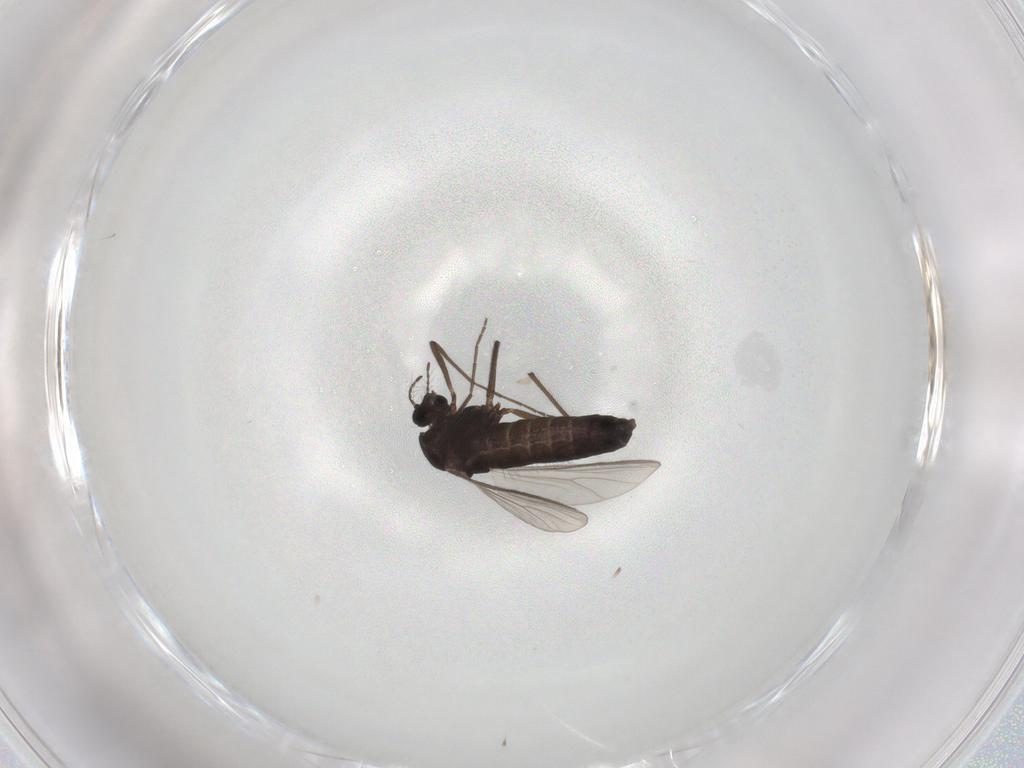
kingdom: Animalia
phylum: Arthropoda
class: Insecta
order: Diptera
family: Chironomidae
